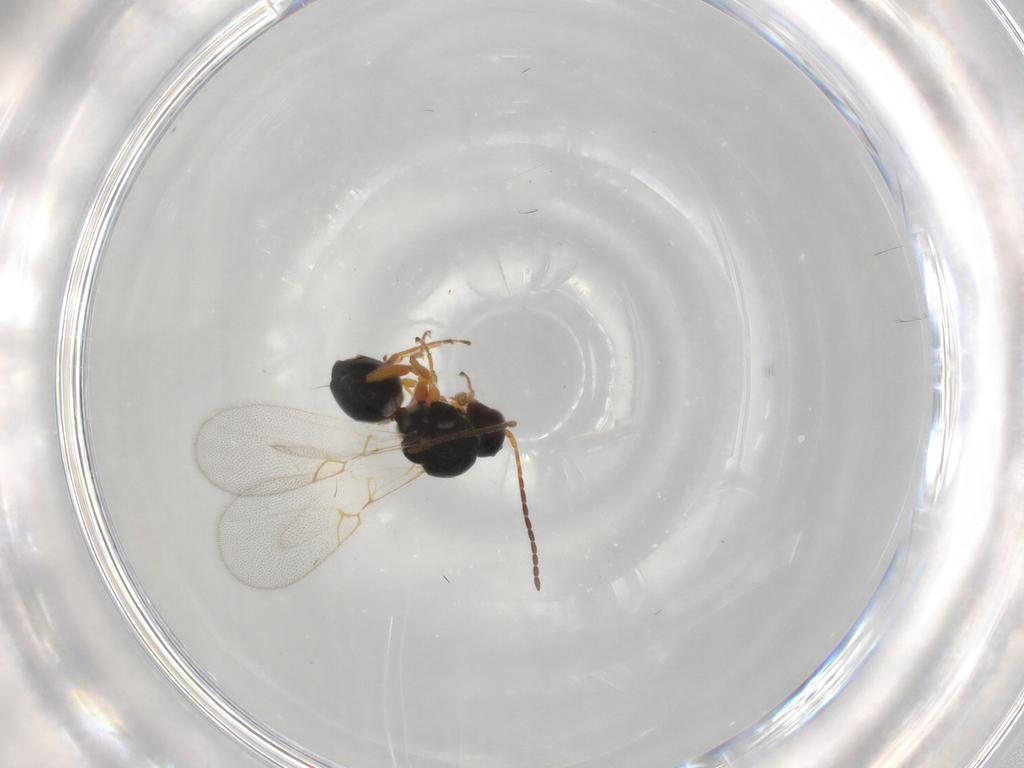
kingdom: Animalia
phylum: Arthropoda
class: Insecta
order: Hymenoptera
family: Figitidae
